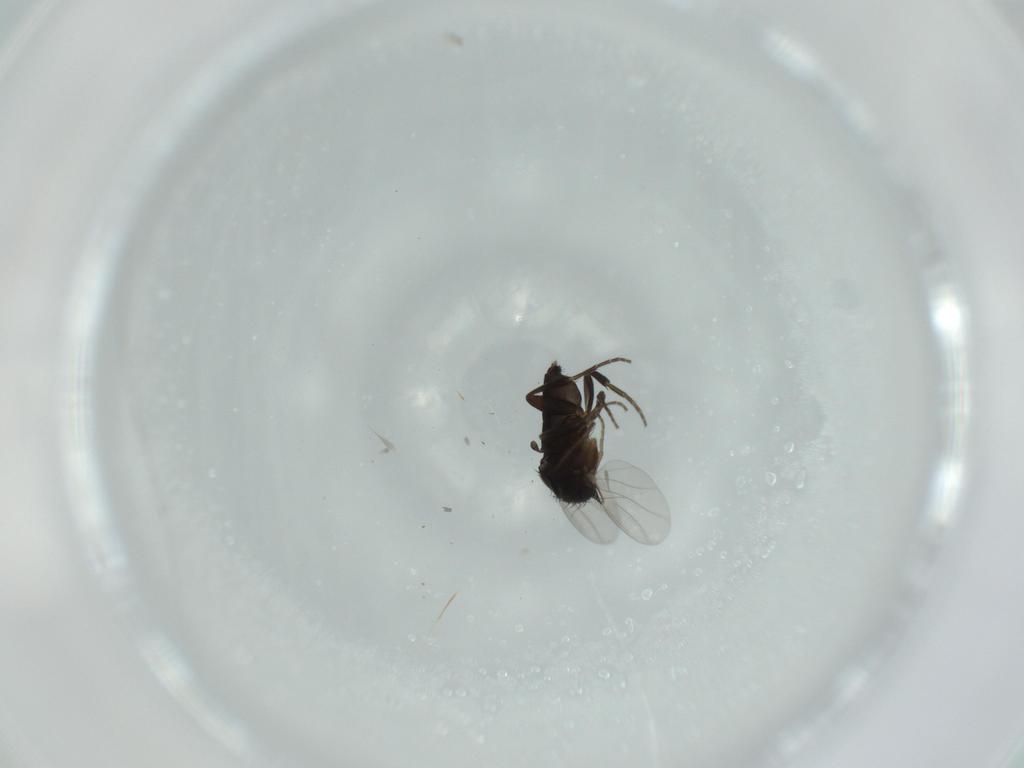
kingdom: Animalia
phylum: Arthropoda
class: Insecta
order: Diptera
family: Phoridae
